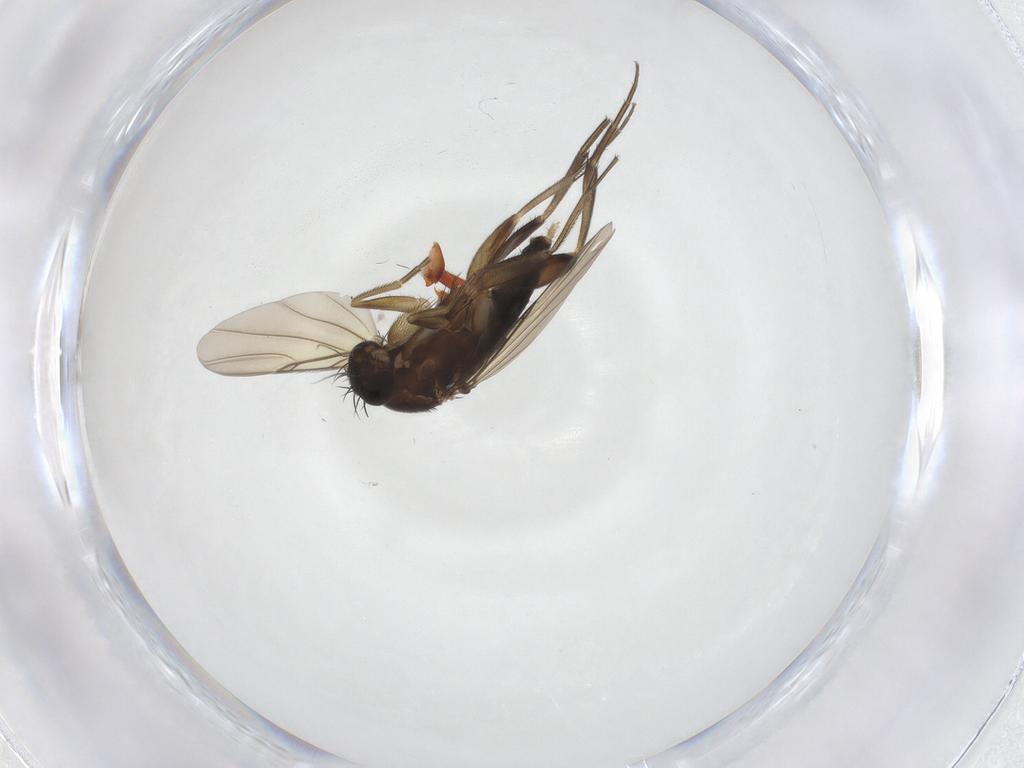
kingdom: Animalia
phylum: Arthropoda
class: Insecta
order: Diptera
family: Phoridae
